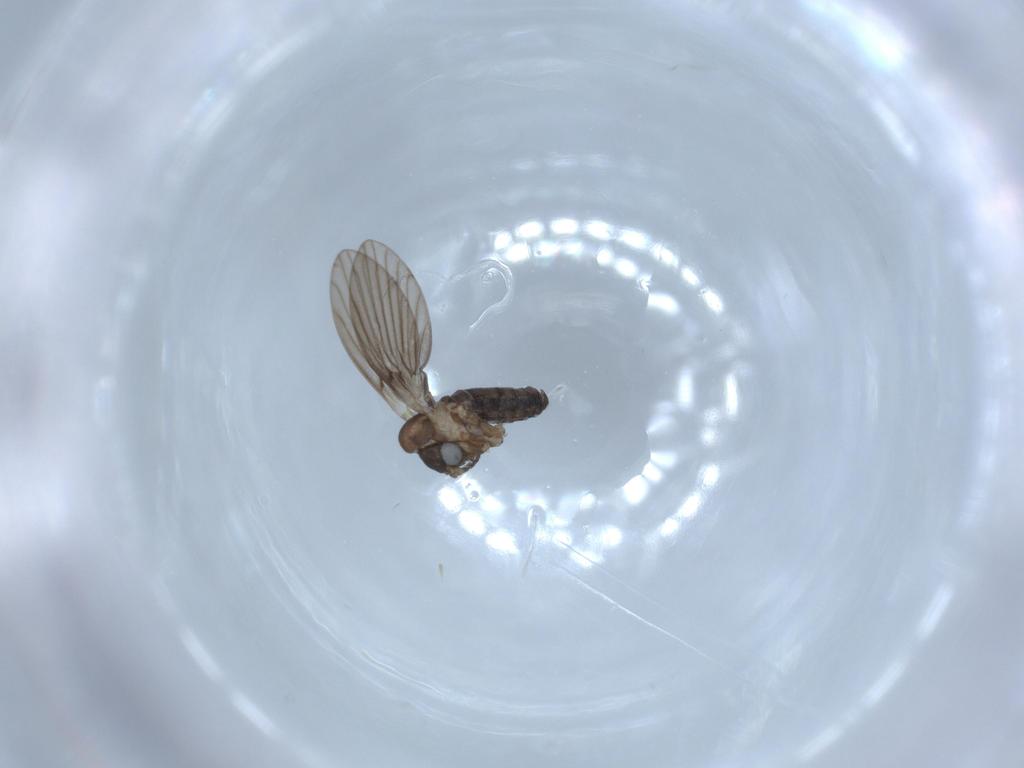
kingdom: Animalia
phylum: Arthropoda
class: Insecta
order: Diptera
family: Psychodidae
